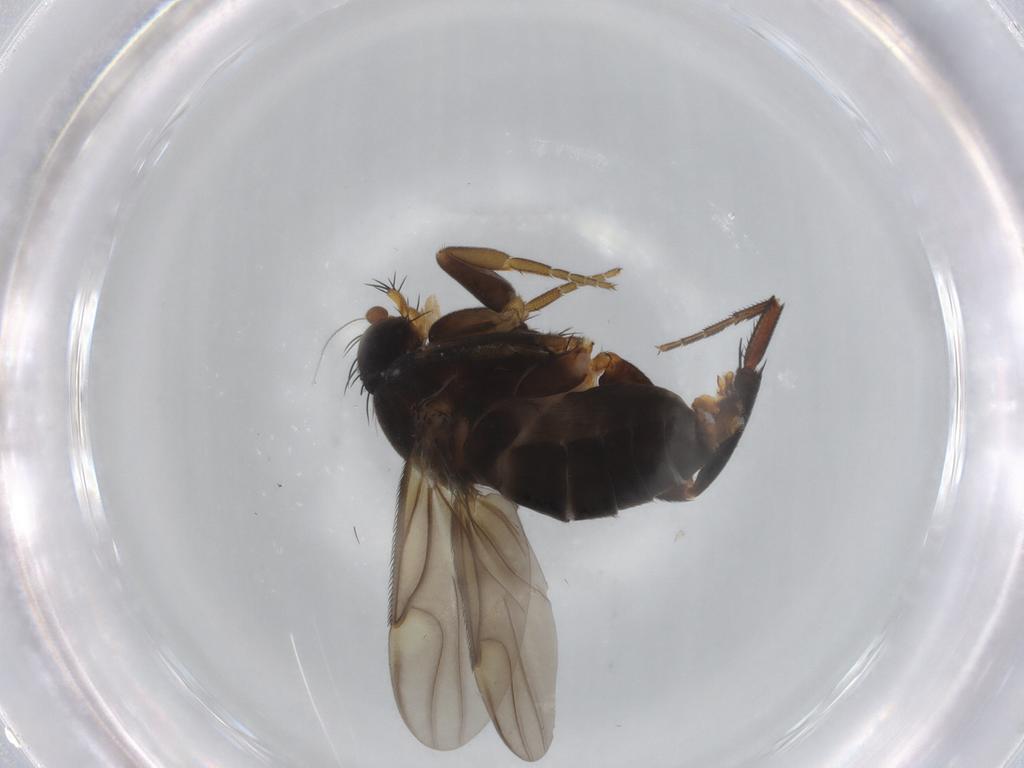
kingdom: Animalia
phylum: Arthropoda
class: Insecta
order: Diptera
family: Phoridae
